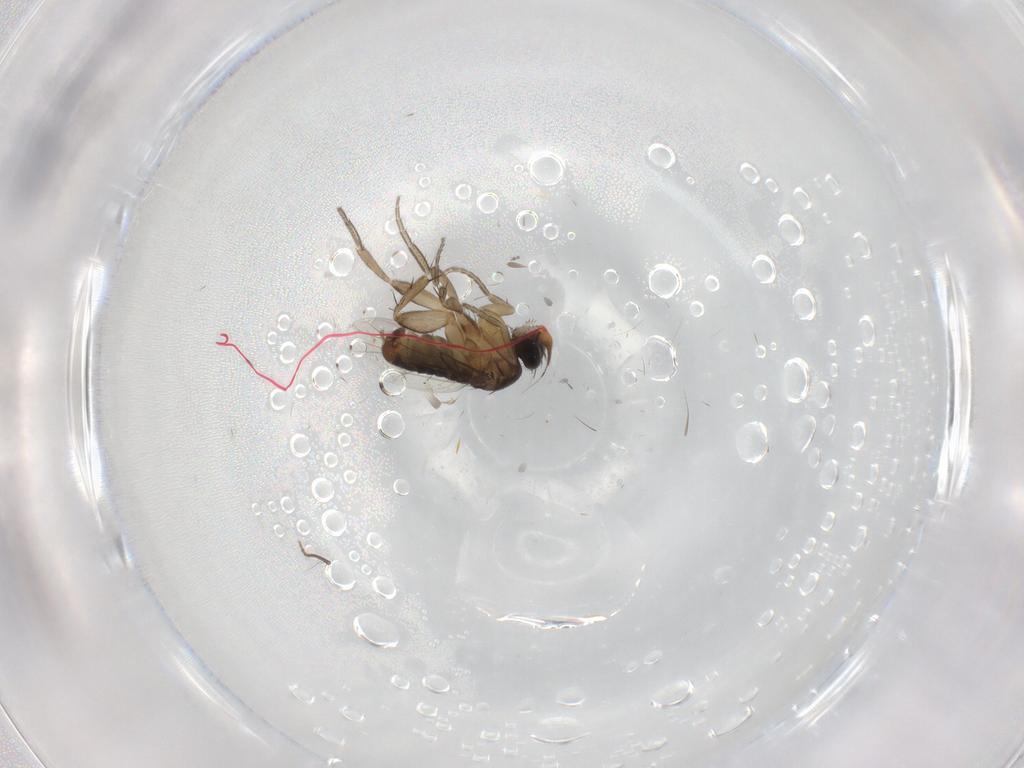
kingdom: Animalia
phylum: Arthropoda
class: Insecta
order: Diptera
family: Phoridae
